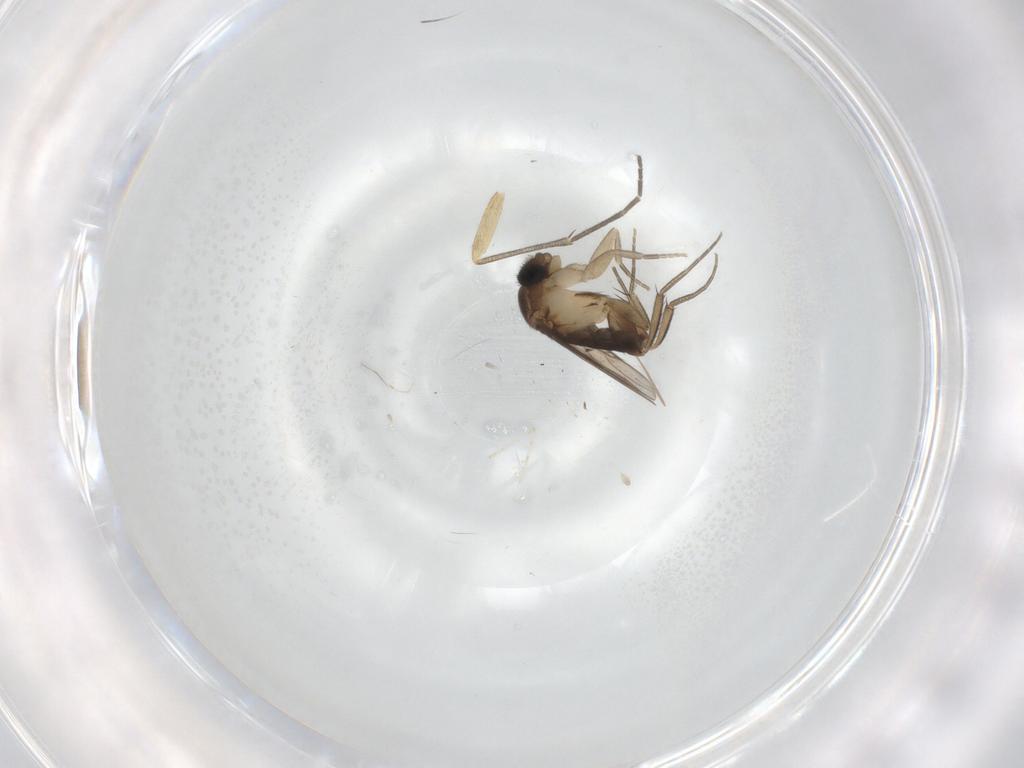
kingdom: Animalia
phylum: Arthropoda
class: Insecta
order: Diptera
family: Phoridae
